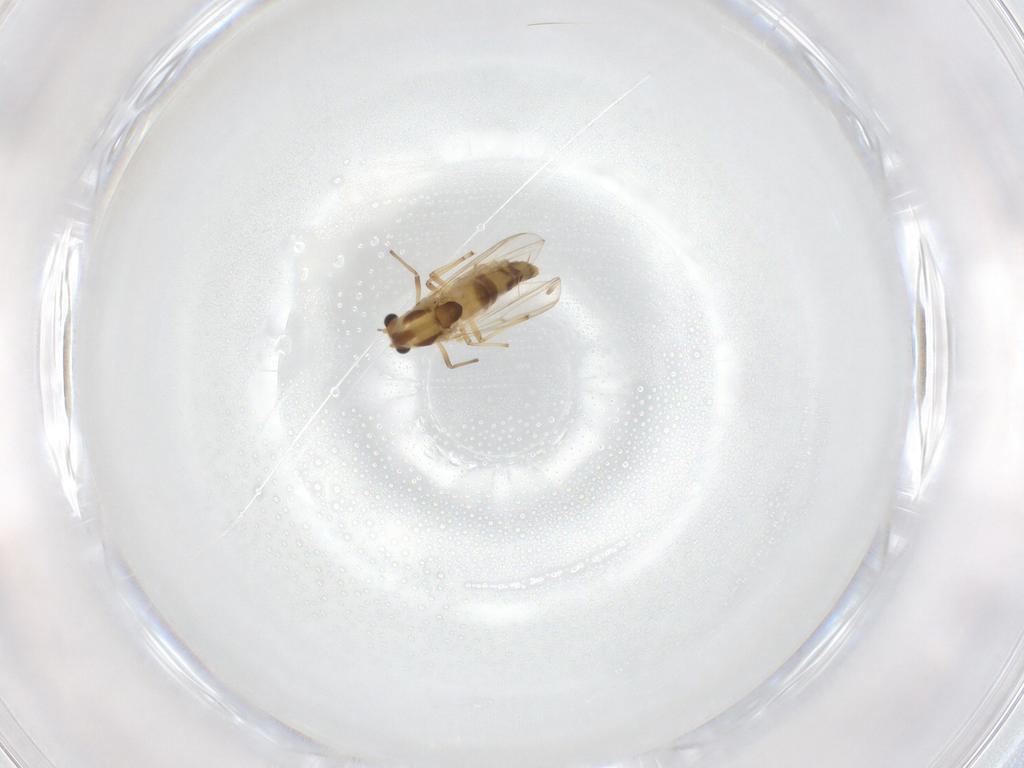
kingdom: Animalia
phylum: Arthropoda
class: Insecta
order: Diptera
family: Chironomidae
